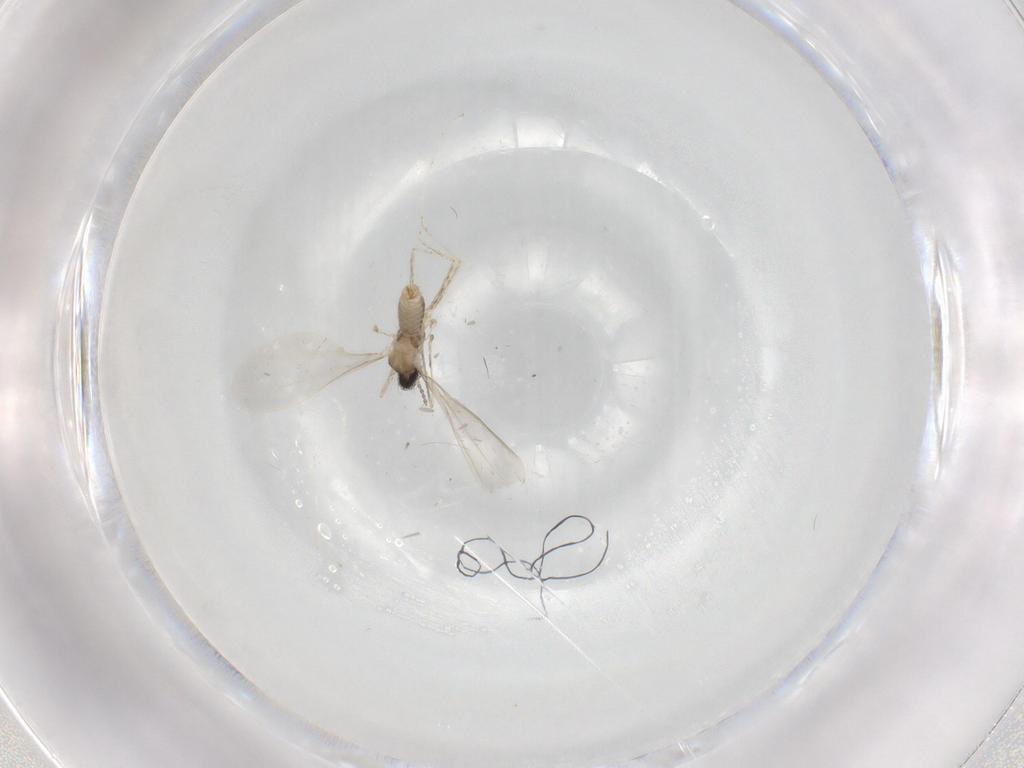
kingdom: Animalia
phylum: Arthropoda
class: Insecta
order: Diptera
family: Cecidomyiidae
